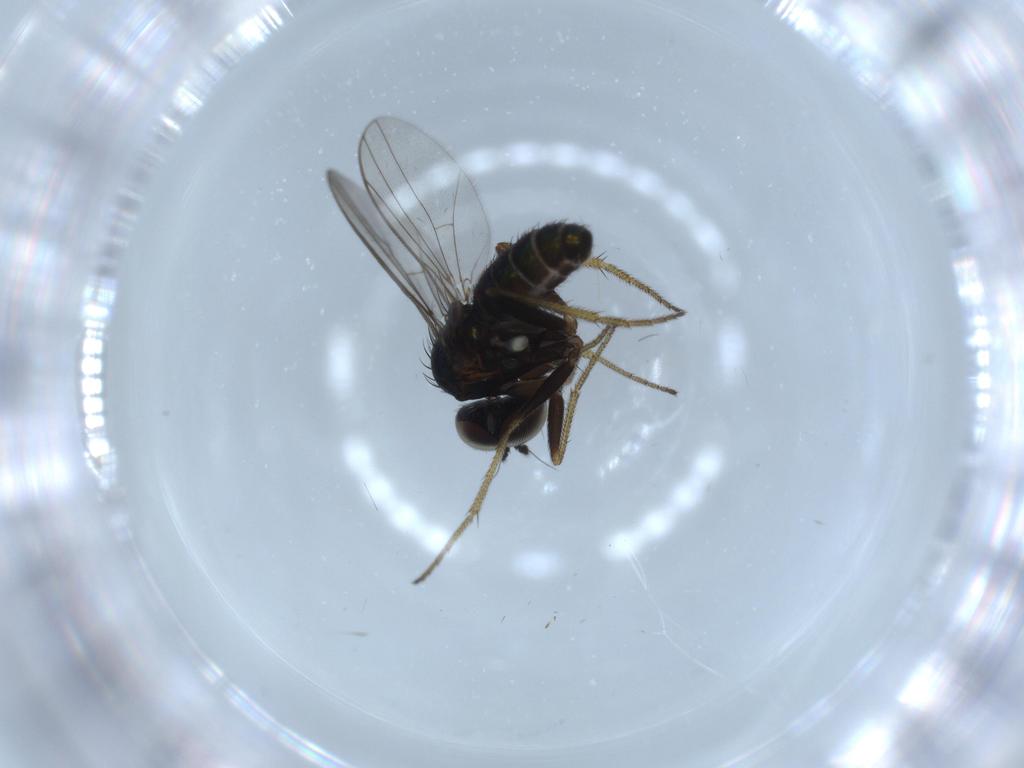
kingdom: Animalia
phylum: Arthropoda
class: Insecta
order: Diptera
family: Dolichopodidae
